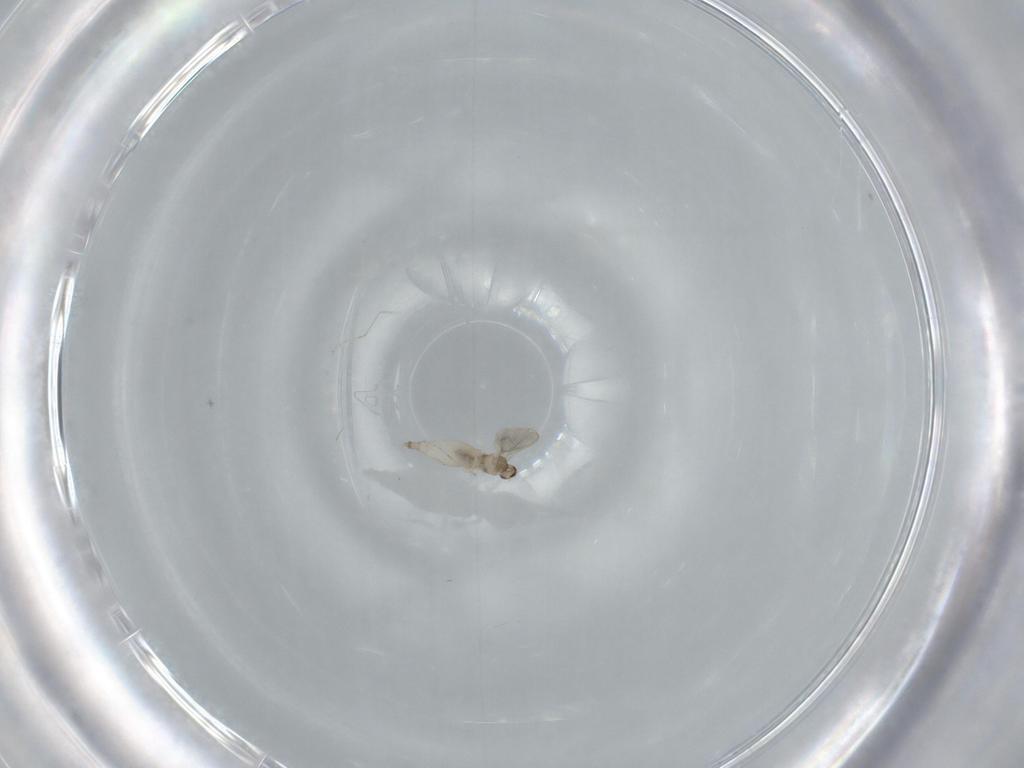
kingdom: Animalia
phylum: Arthropoda
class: Insecta
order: Diptera
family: Cecidomyiidae
